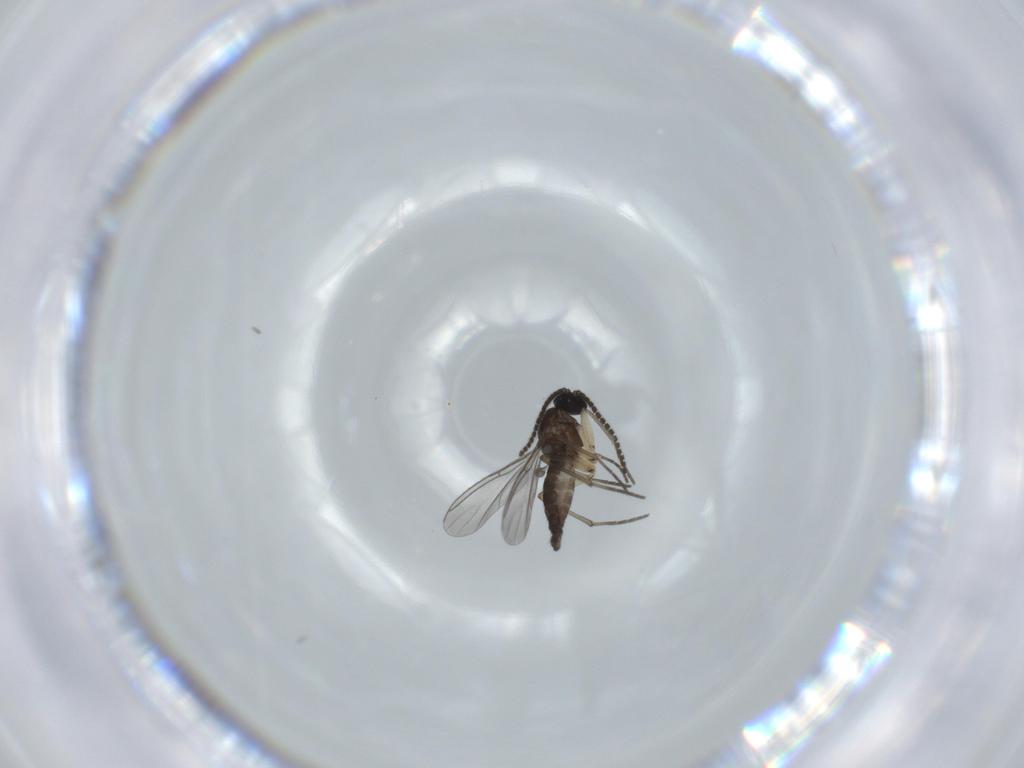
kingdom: Animalia
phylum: Arthropoda
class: Insecta
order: Diptera
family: Sciaridae
